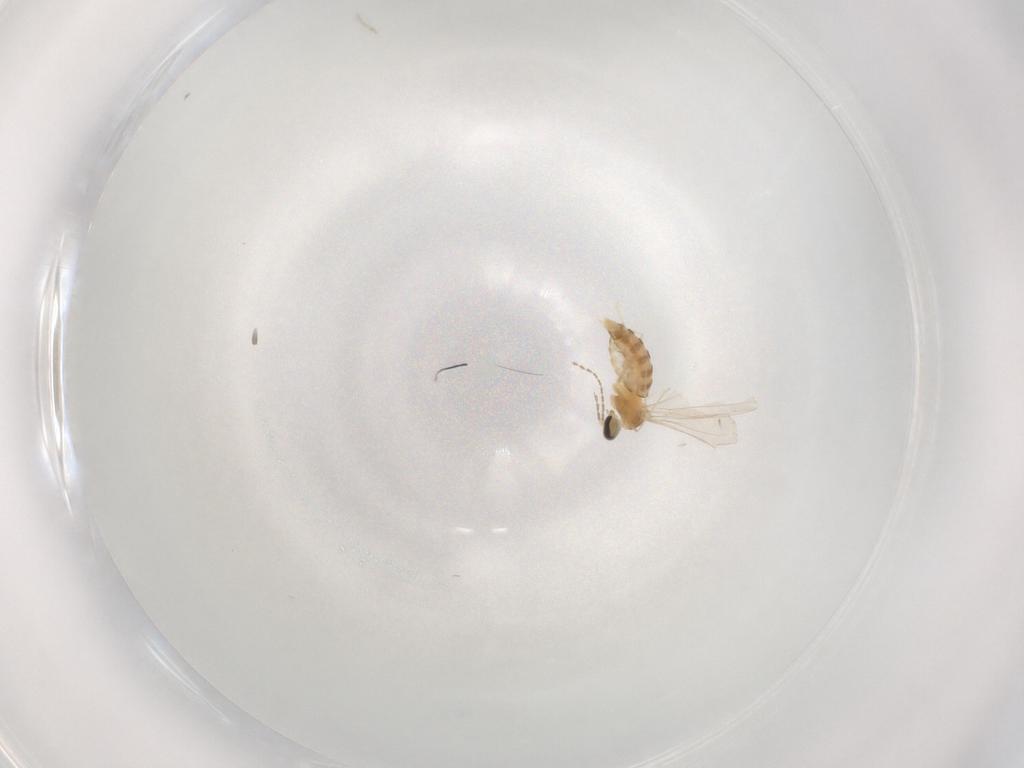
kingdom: Animalia
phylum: Arthropoda
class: Insecta
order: Diptera
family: Cecidomyiidae
